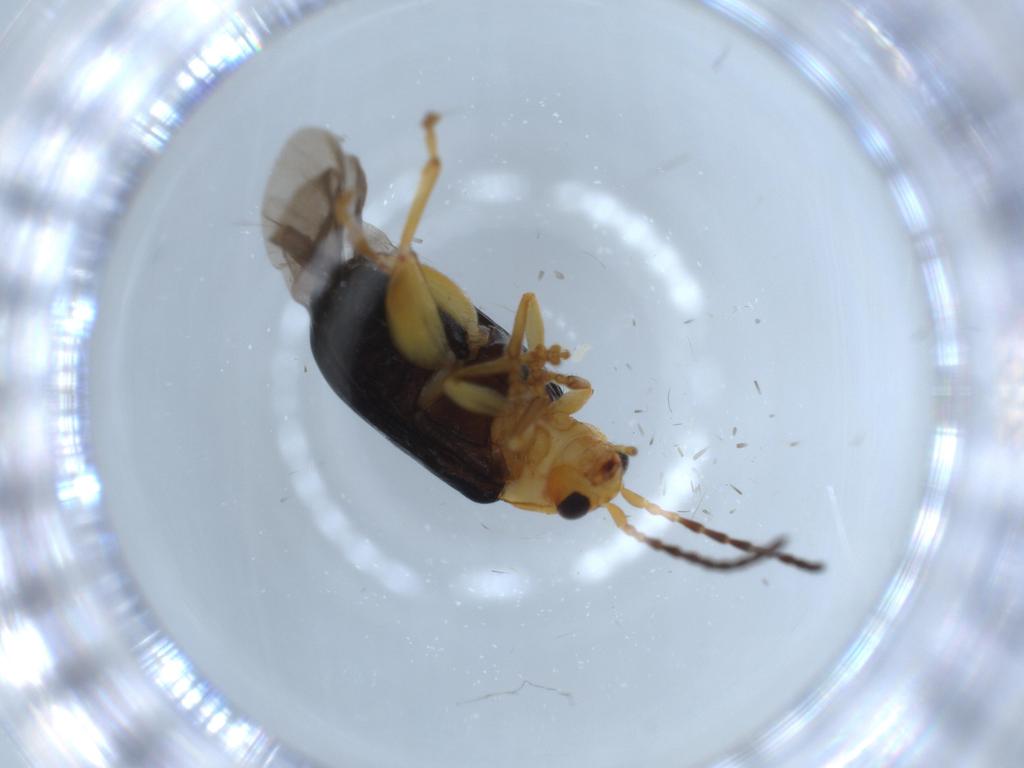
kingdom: Animalia
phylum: Arthropoda
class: Insecta
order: Coleoptera
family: Chrysomelidae
